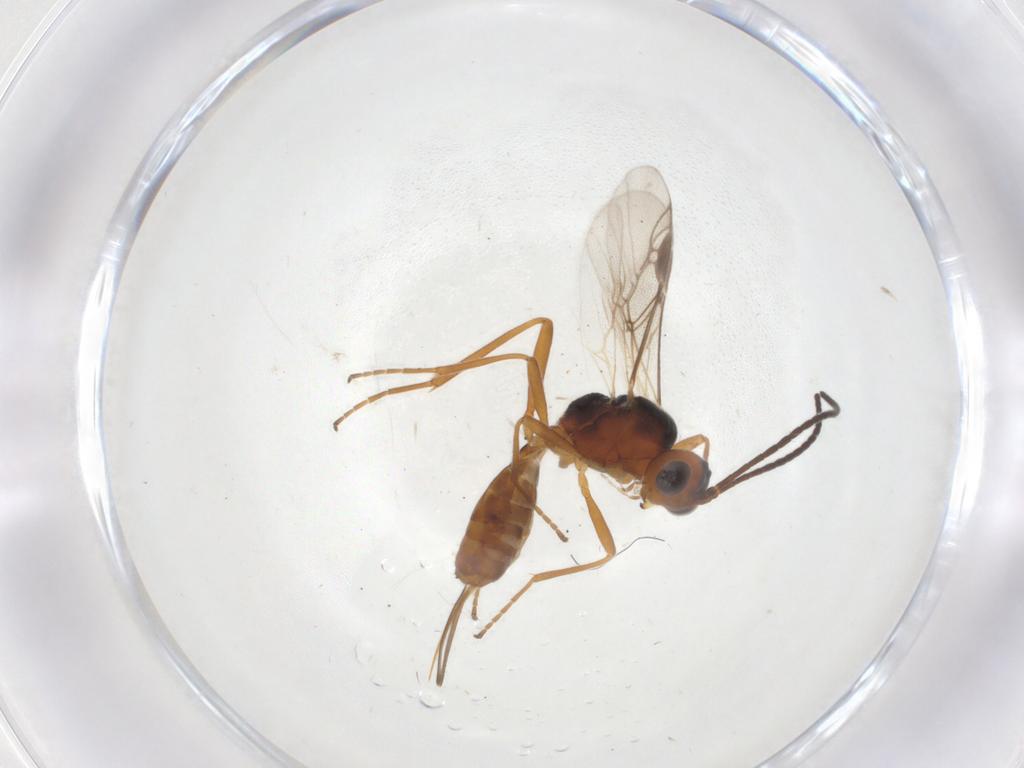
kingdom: Animalia
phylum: Arthropoda
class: Insecta
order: Hymenoptera
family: Braconidae
